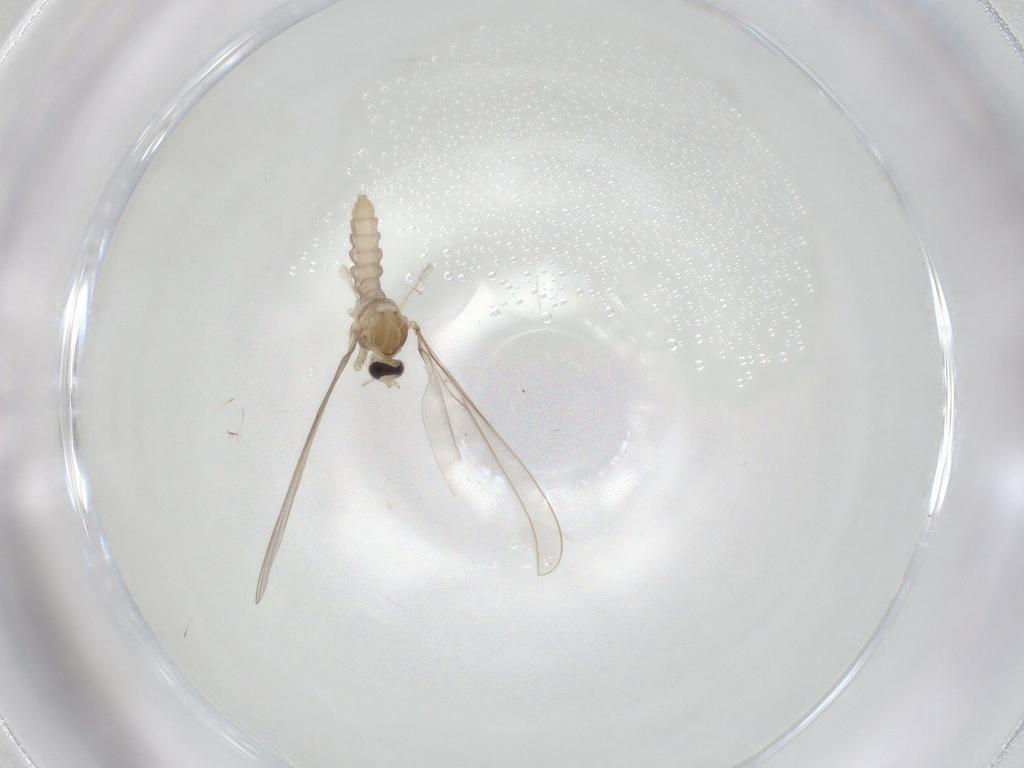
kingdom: Animalia
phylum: Arthropoda
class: Insecta
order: Diptera
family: Cecidomyiidae
